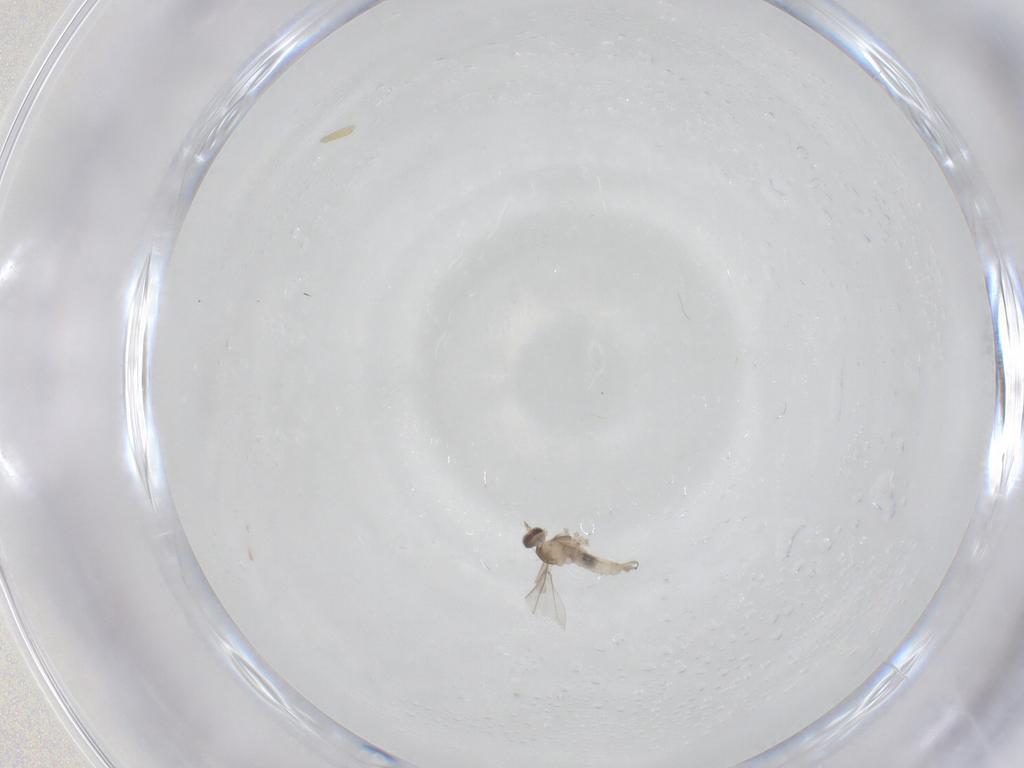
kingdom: Animalia
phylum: Arthropoda
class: Insecta
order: Diptera
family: Cecidomyiidae
